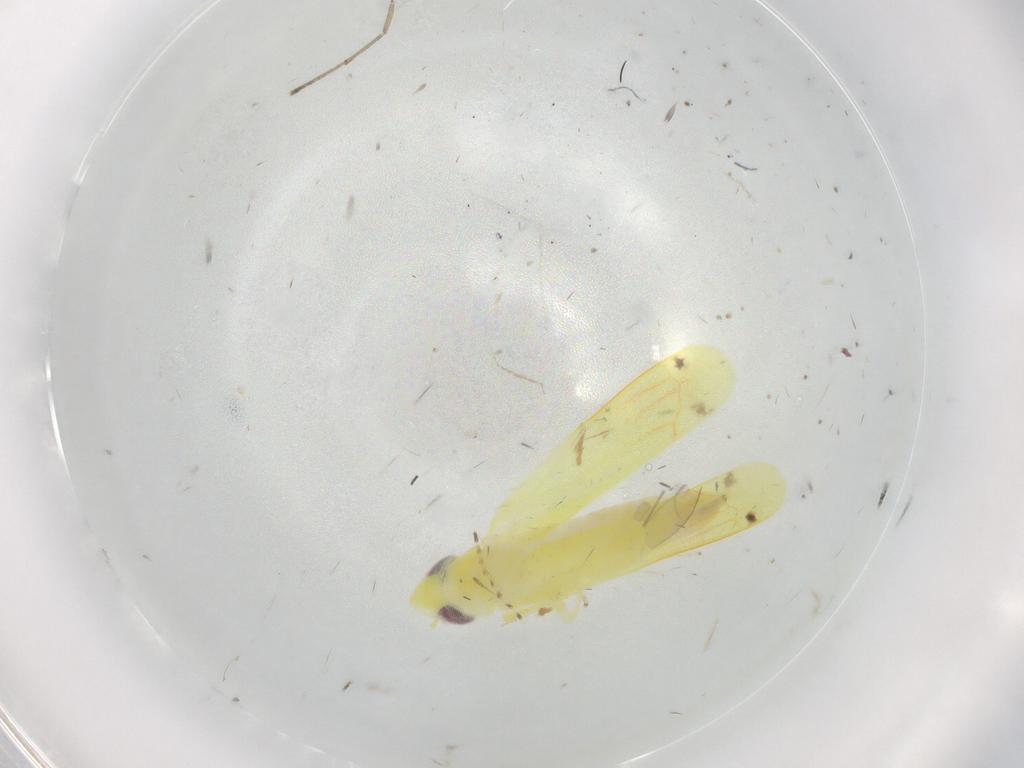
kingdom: Animalia
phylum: Arthropoda
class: Insecta
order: Hemiptera
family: Cicadellidae
